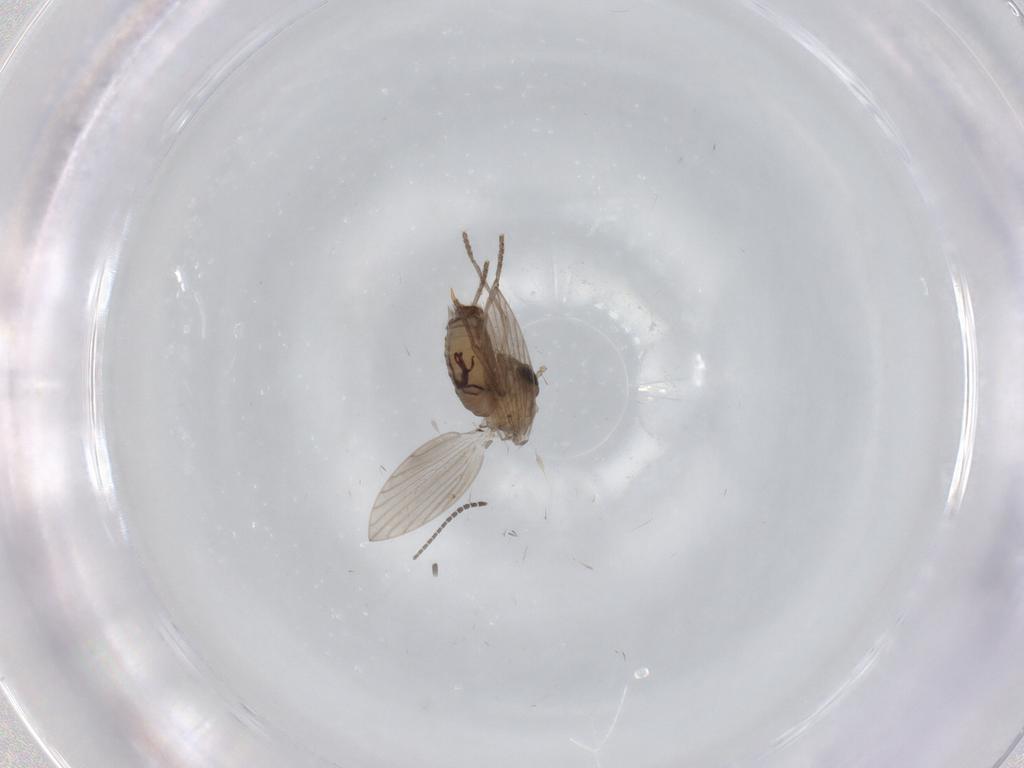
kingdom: Animalia
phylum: Arthropoda
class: Insecta
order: Diptera
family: Psychodidae
